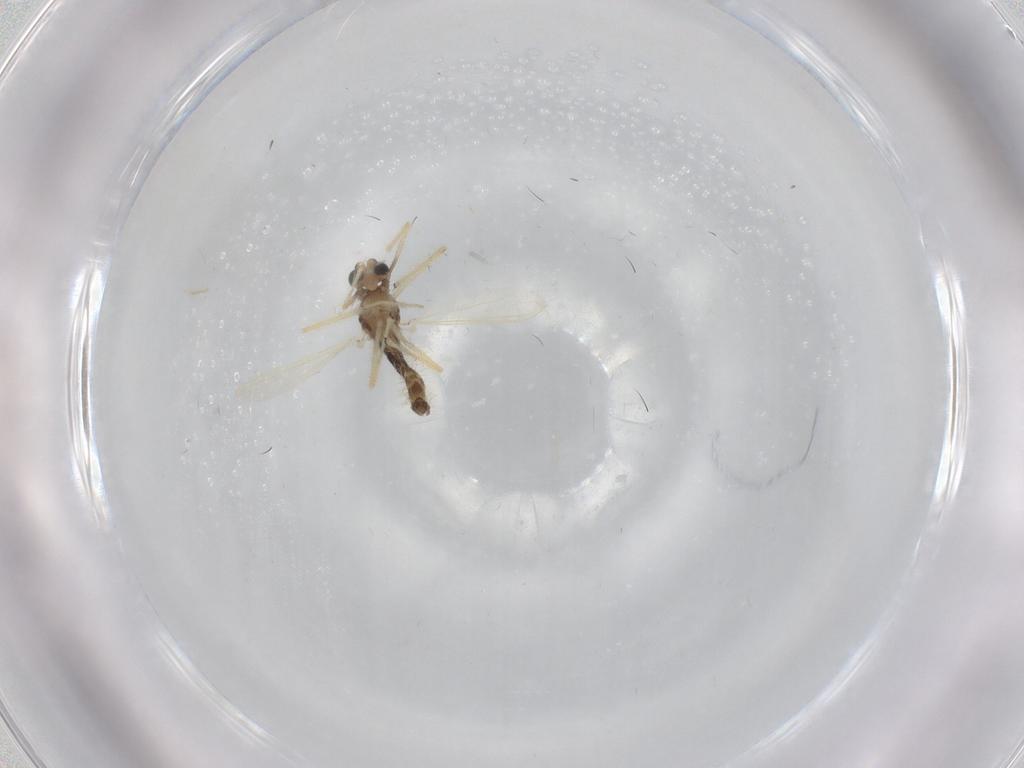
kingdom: Animalia
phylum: Arthropoda
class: Insecta
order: Diptera
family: Chironomidae
